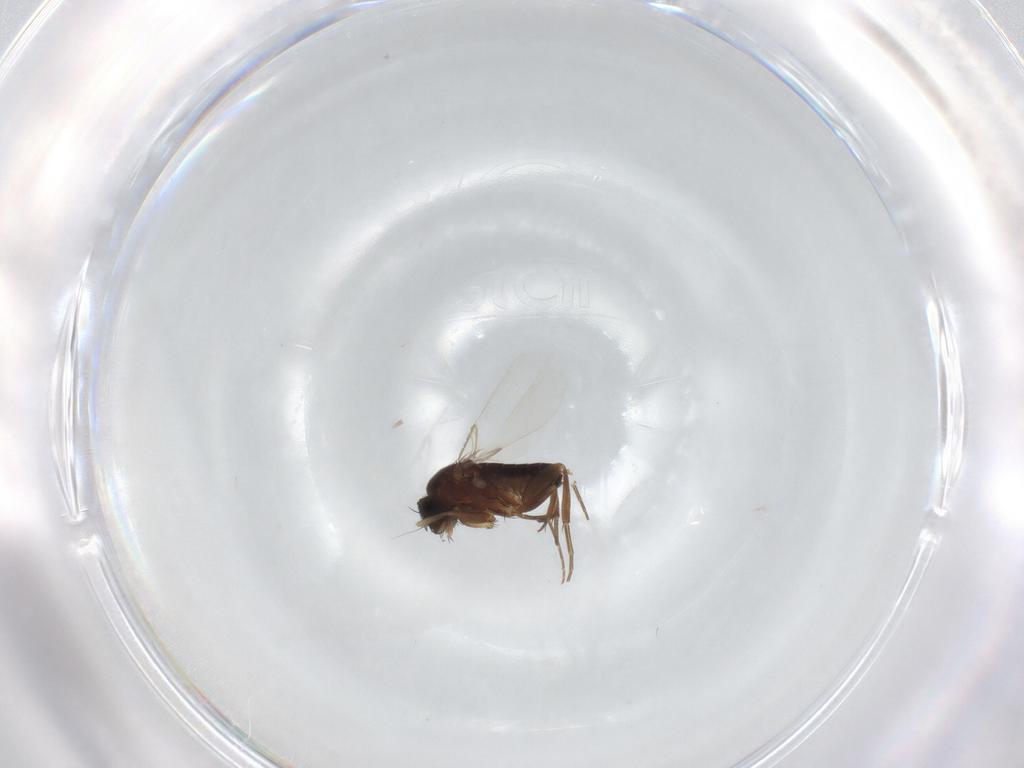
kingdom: Animalia
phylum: Arthropoda
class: Insecta
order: Diptera
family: Phoridae
